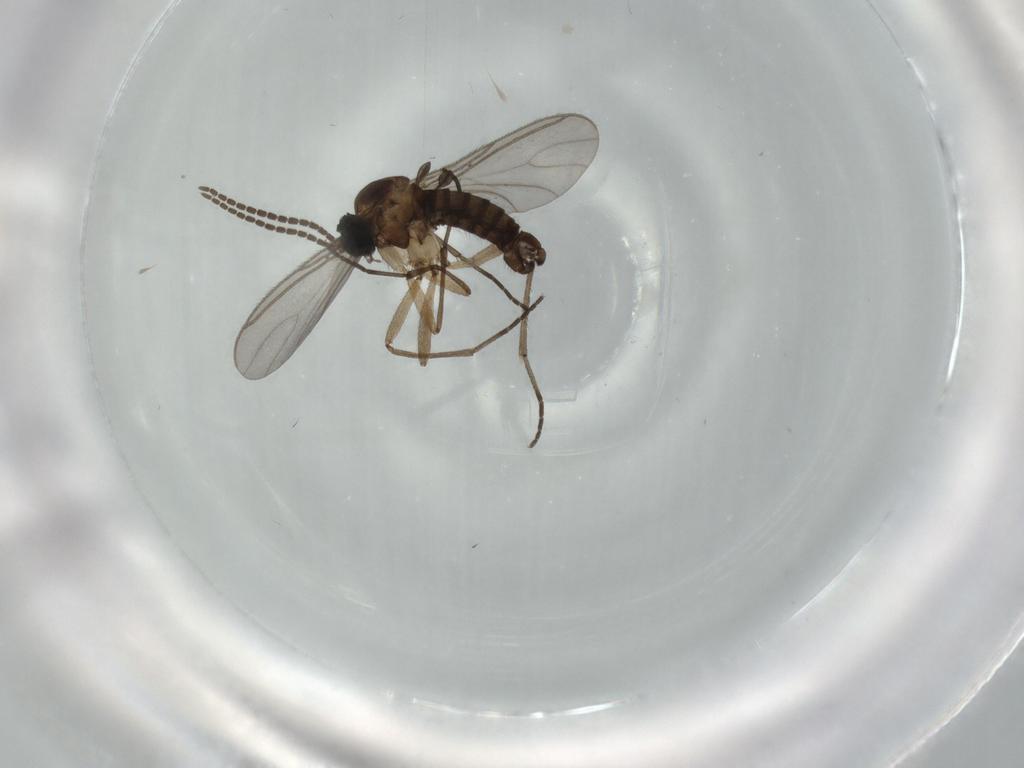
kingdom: Animalia
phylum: Arthropoda
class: Insecta
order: Diptera
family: Sciaridae
